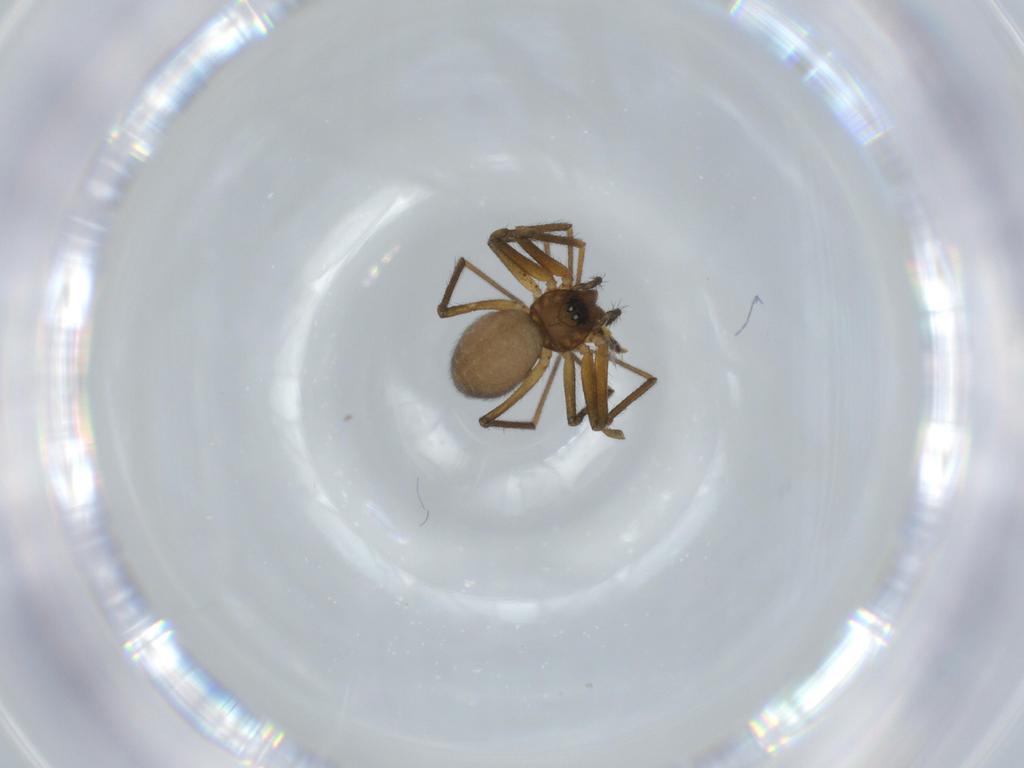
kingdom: Animalia
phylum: Arthropoda
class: Arachnida
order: Araneae
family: Linyphiidae
